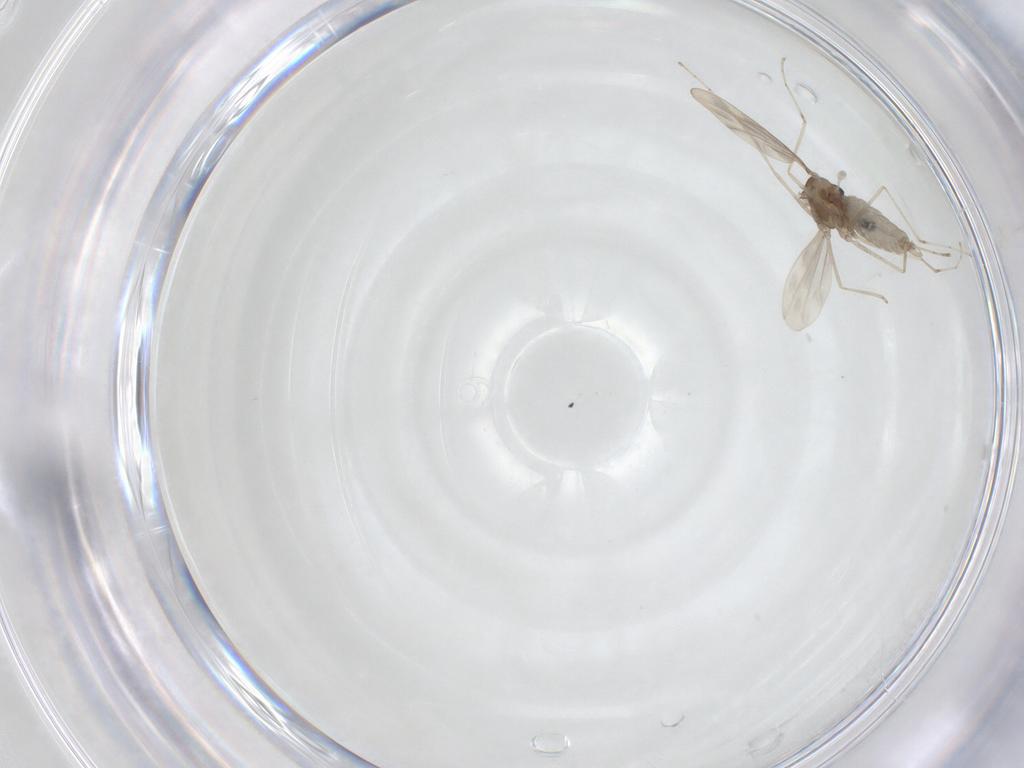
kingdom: Animalia
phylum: Arthropoda
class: Insecta
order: Diptera
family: Cecidomyiidae
